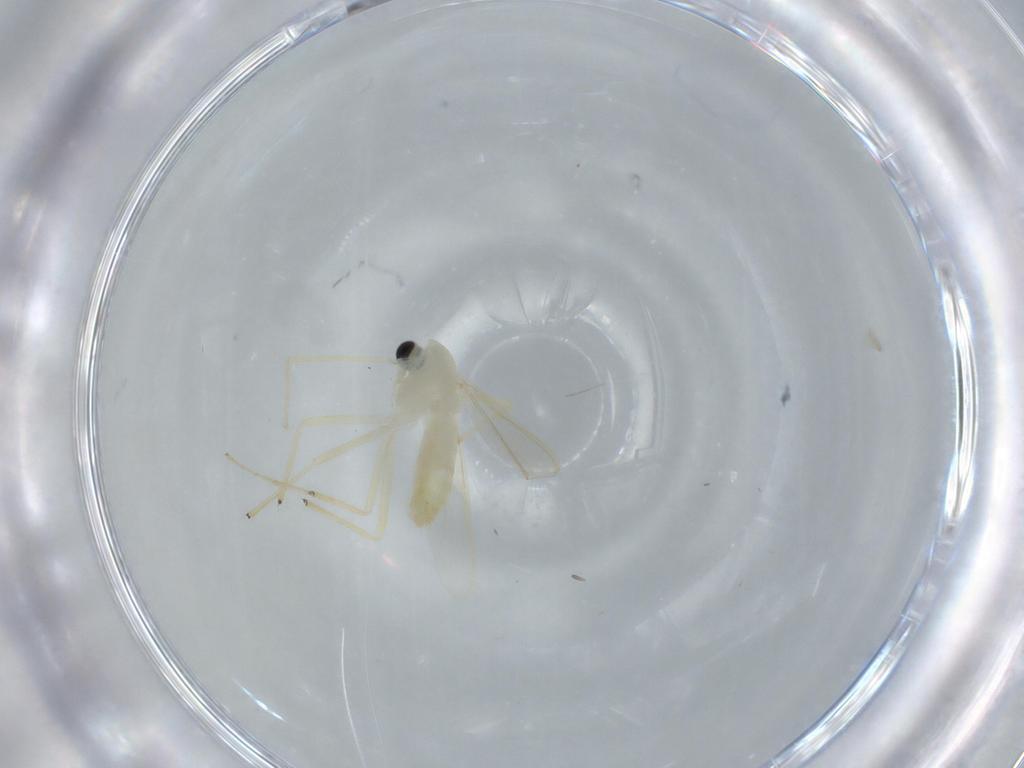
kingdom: Animalia
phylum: Arthropoda
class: Insecta
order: Diptera
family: Chironomidae
